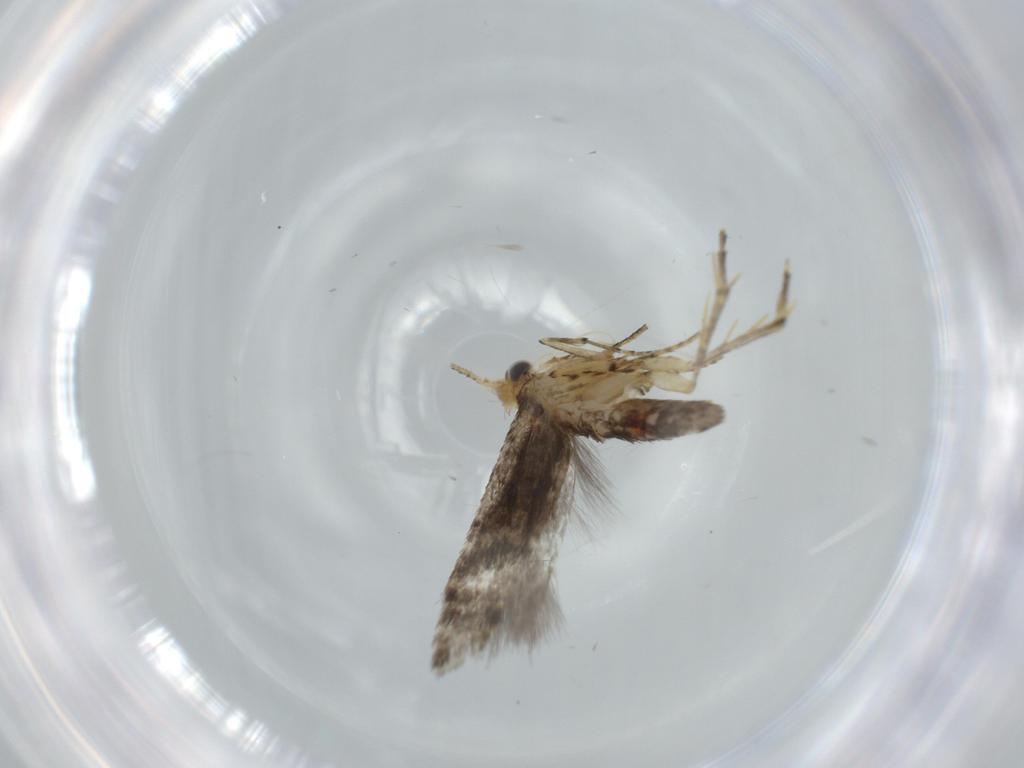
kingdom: Animalia
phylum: Arthropoda
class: Insecta
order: Lepidoptera
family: Argyresthiidae
